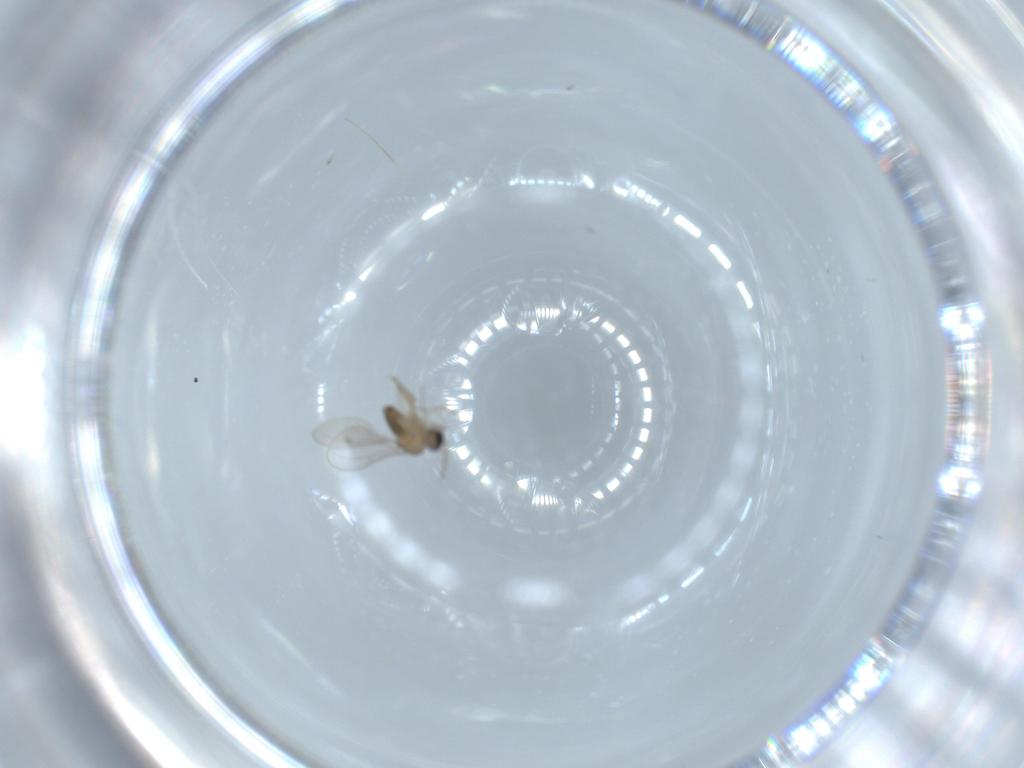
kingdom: Animalia
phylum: Arthropoda
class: Insecta
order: Diptera
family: Cecidomyiidae
